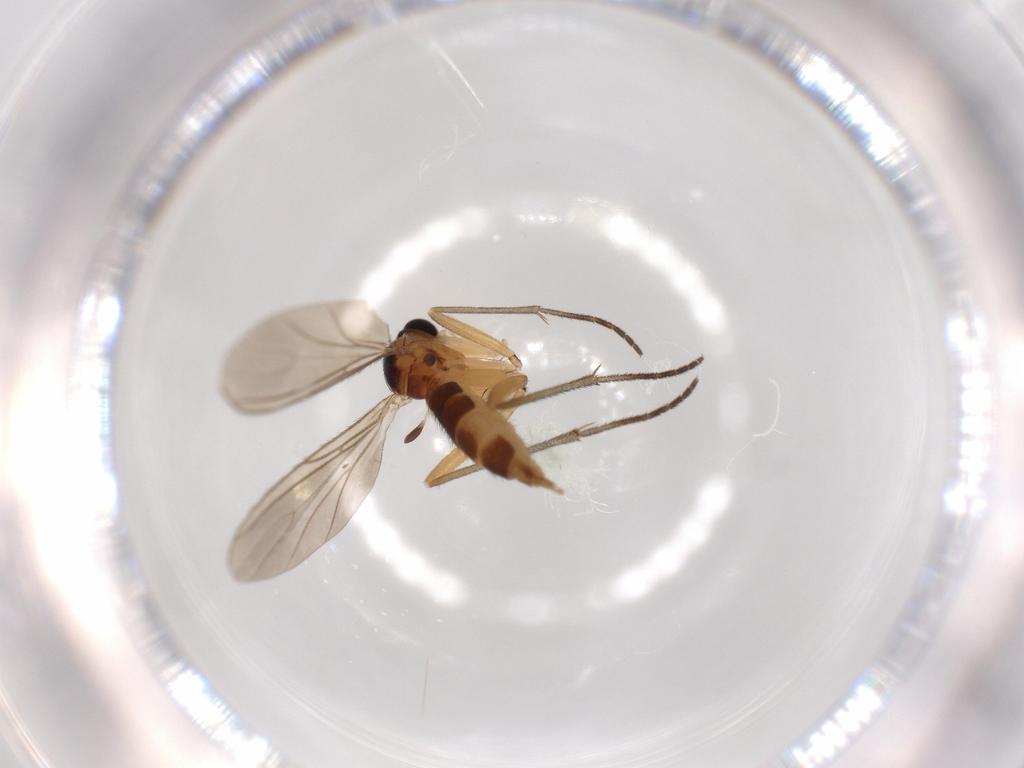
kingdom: Animalia
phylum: Arthropoda
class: Insecta
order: Diptera
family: Sciaridae
